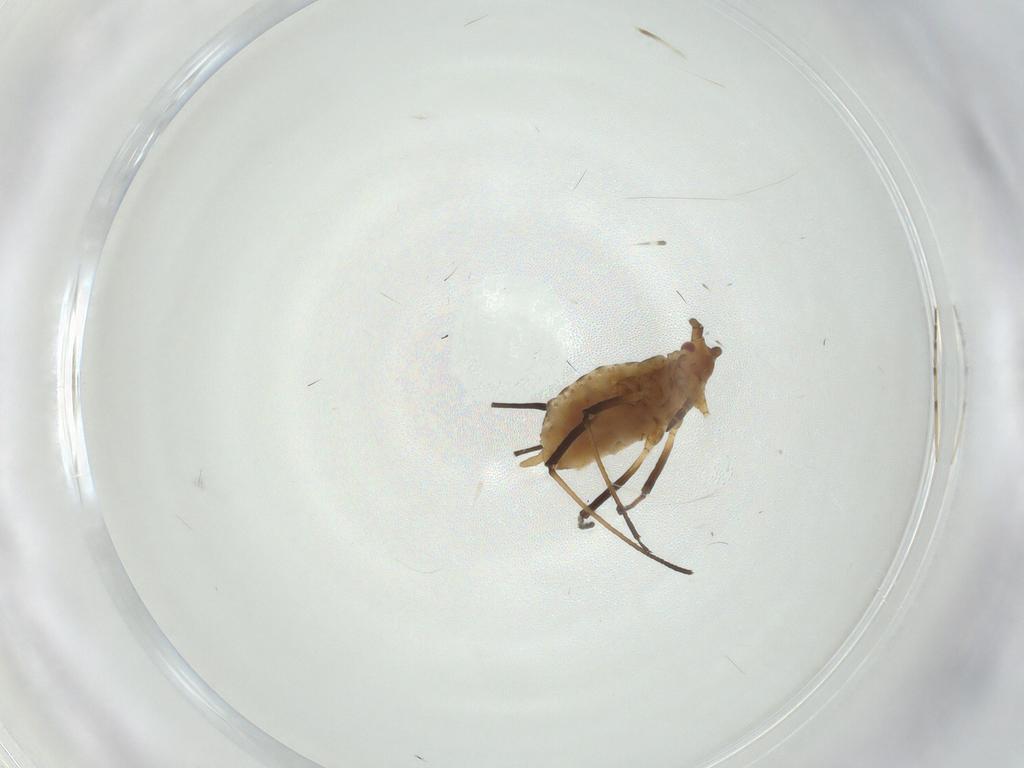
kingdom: Animalia
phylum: Arthropoda
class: Insecta
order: Hemiptera
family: Aphididae
